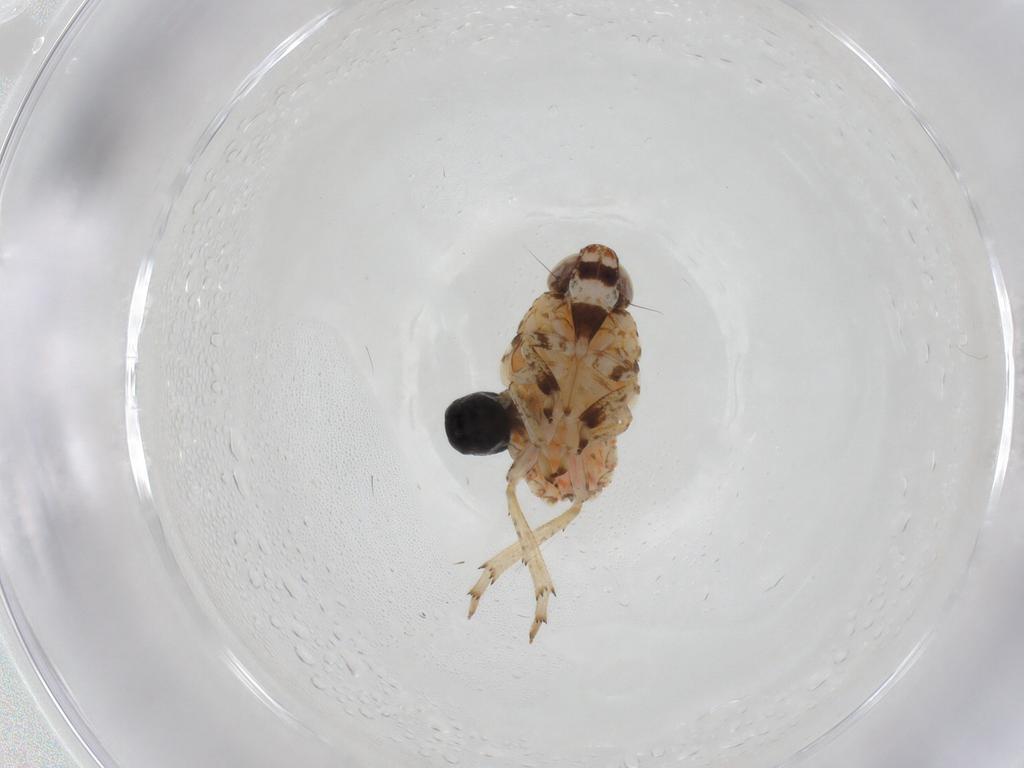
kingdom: Animalia
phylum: Arthropoda
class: Insecta
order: Hemiptera
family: Issidae
